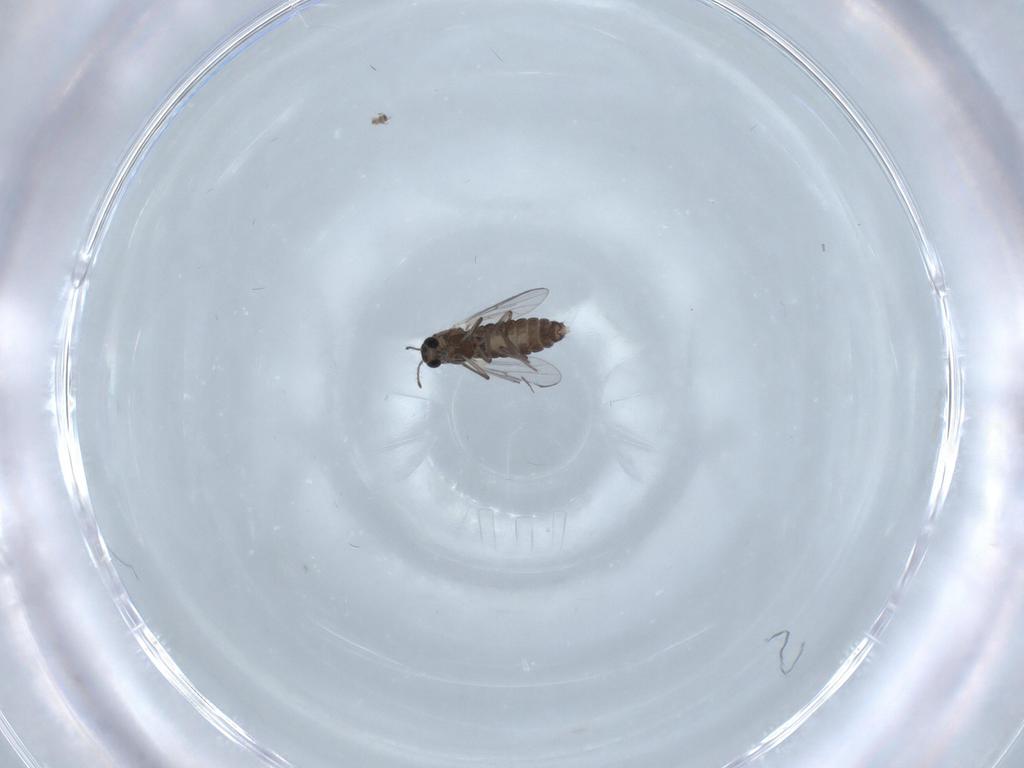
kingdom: Animalia
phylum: Arthropoda
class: Insecta
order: Diptera
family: Chironomidae
